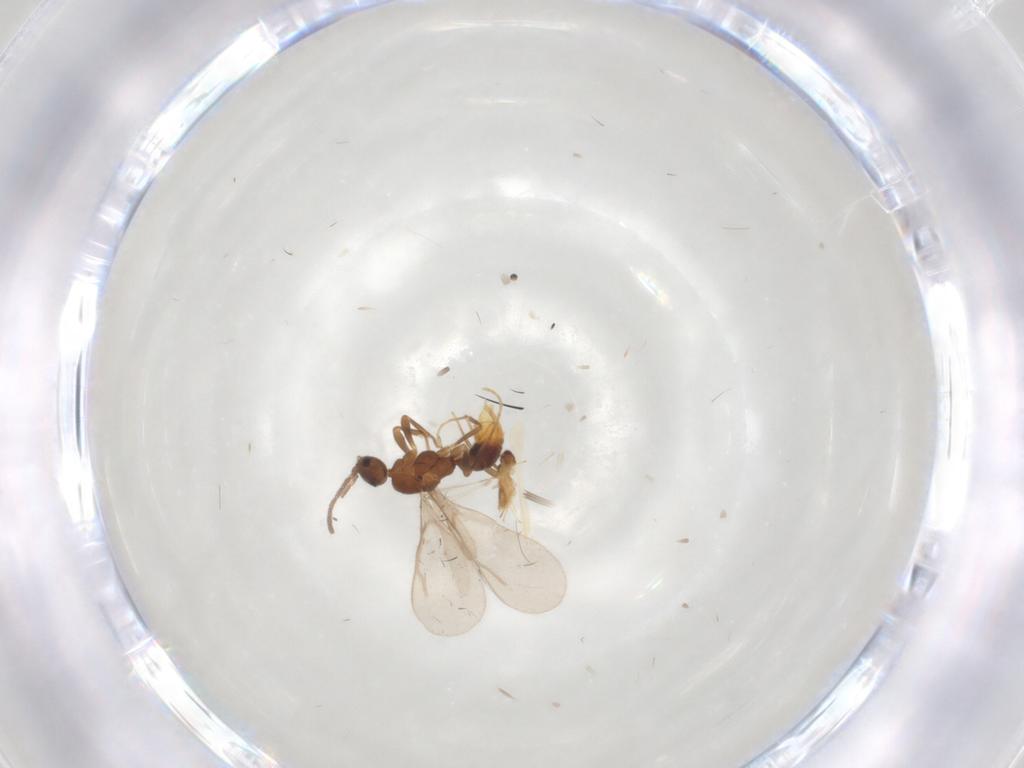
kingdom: Animalia
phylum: Arthropoda
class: Insecta
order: Hymenoptera
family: Formicidae
